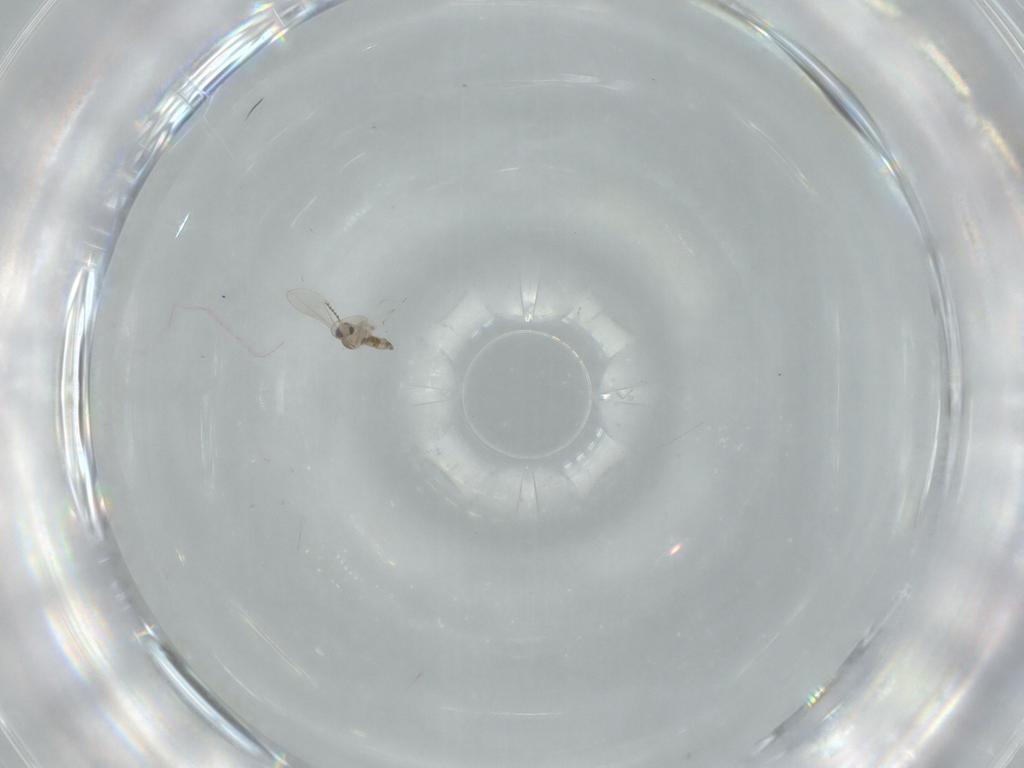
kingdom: Animalia
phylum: Arthropoda
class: Insecta
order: Diptera
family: Cecidomyiidae
